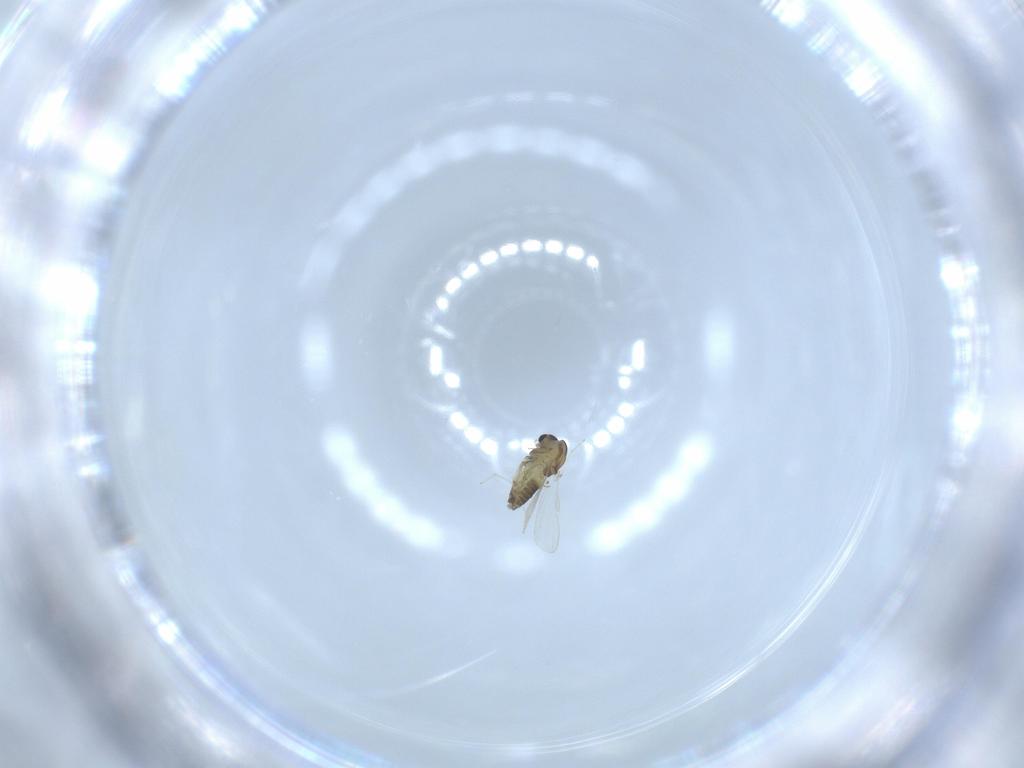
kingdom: Animalia
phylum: Arthropoda
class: Insecta
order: Diptera
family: Chironomidae
